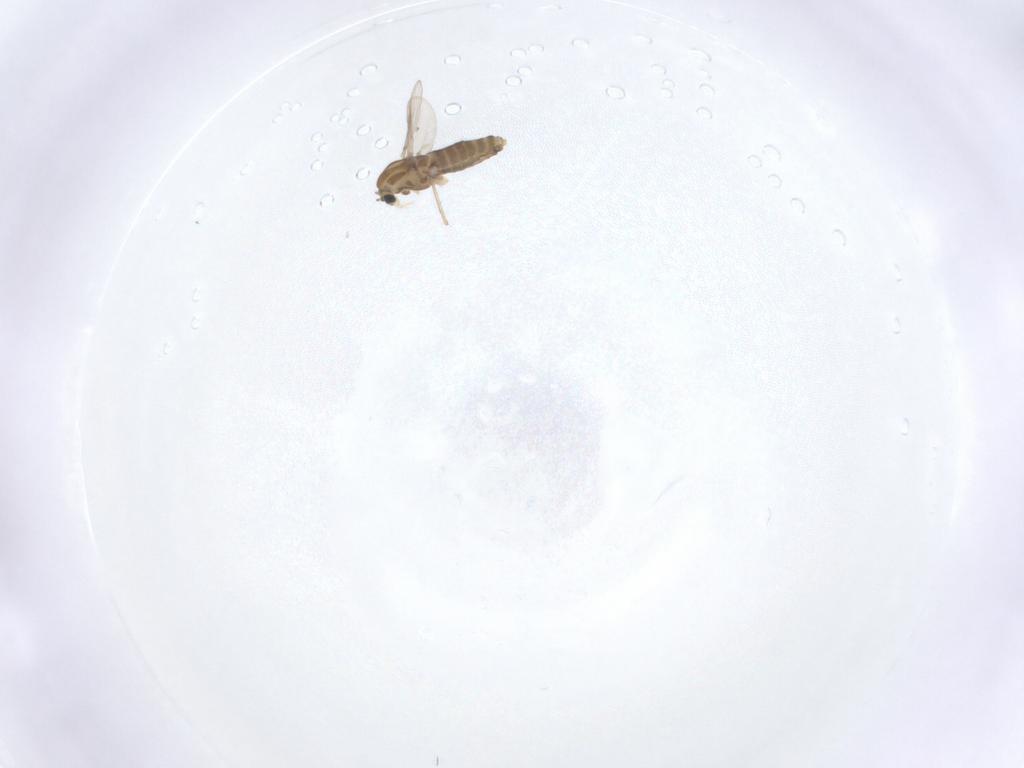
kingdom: Animalia
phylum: Arthropoda
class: Insecta
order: Diptera
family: Chironomidae
